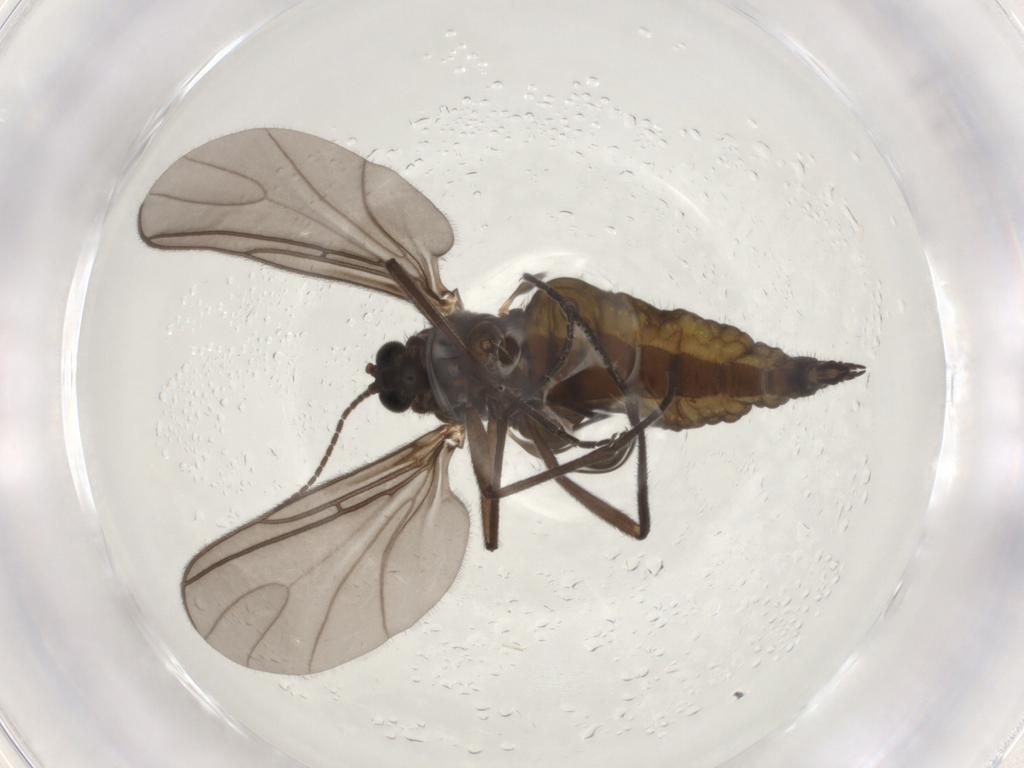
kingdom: Animalia
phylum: Arthropoda
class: Insecta
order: Diptera
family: Sciaridae
